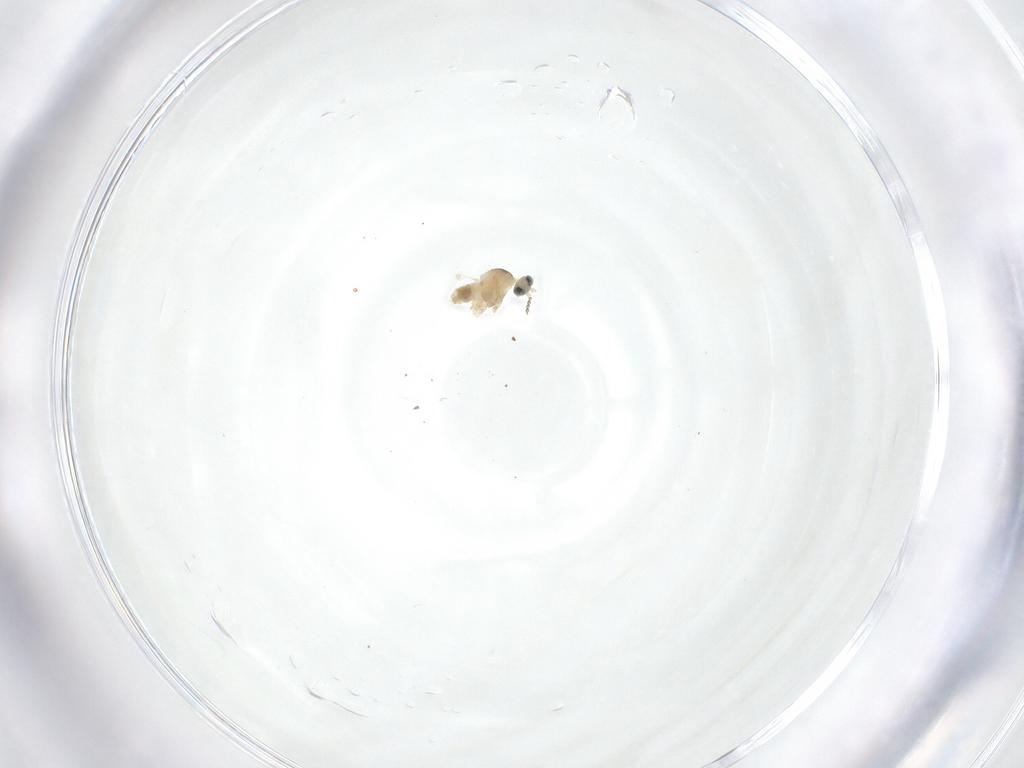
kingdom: Animalia
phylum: Arthropoda
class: Insecta
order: Diptera
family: Cecidomyiidae
